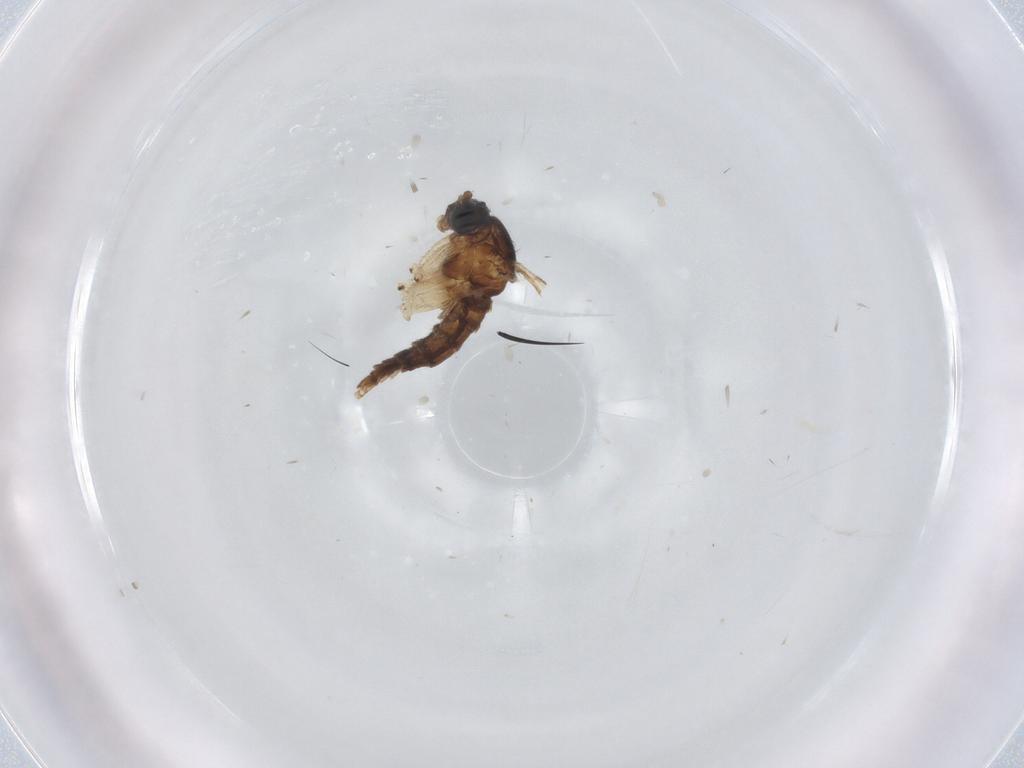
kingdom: Animalia
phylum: Arthropoda
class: Insecta
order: Diptera
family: Sciaridae
